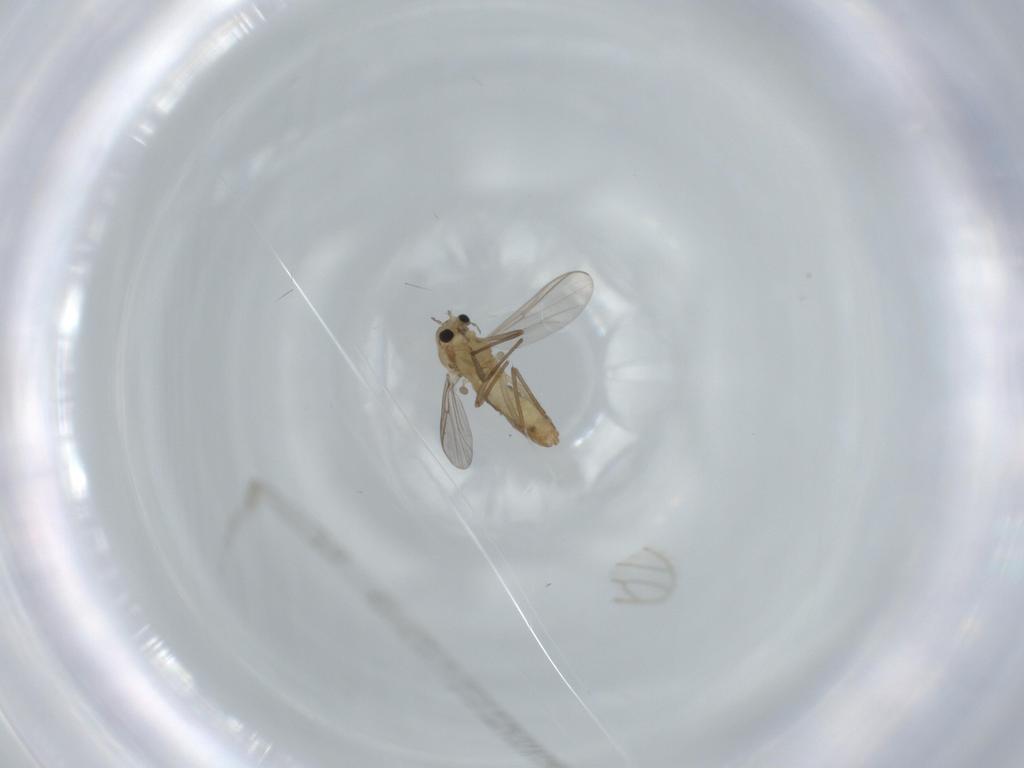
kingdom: Animalia
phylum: Arthropoda
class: Insecta
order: Diptera
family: Chironomidae
